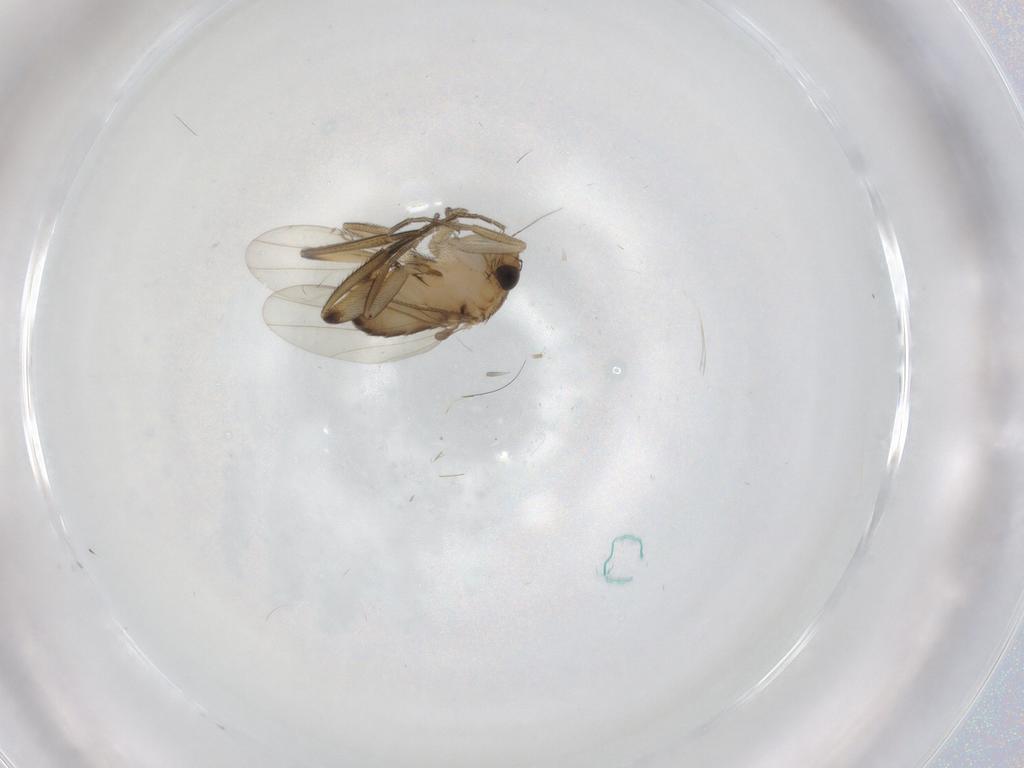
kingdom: Animalia
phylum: Arthropoda
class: Insecta
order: Diptera
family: Phoridae
